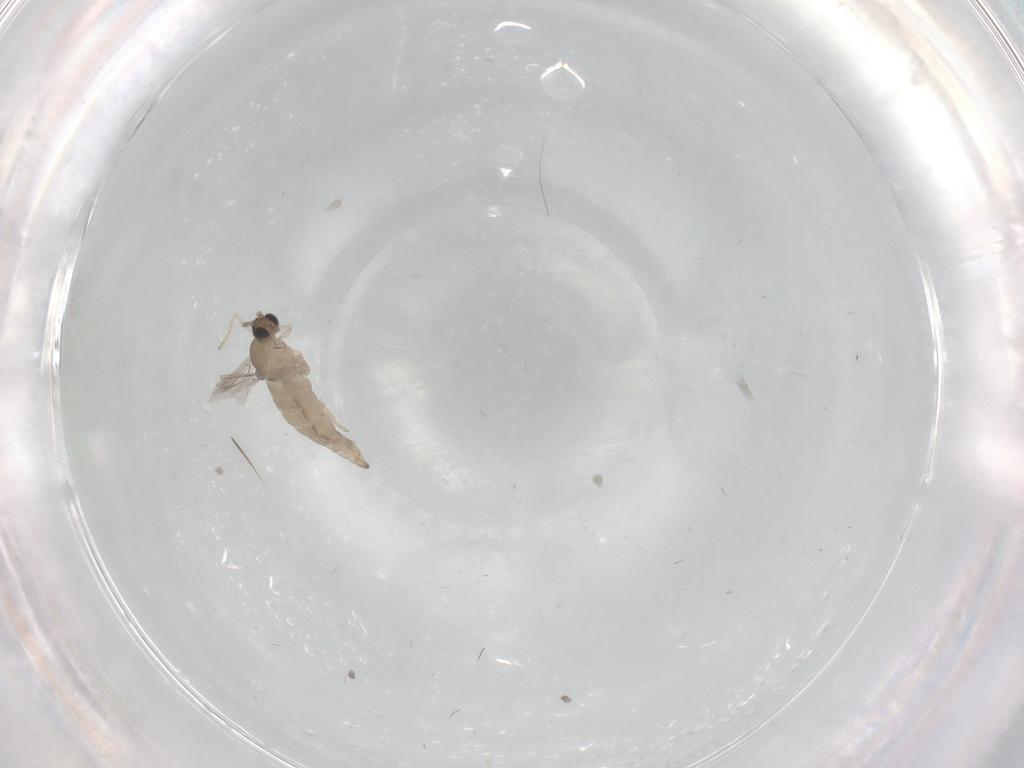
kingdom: Animalia
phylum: Arthropoda
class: Insecta
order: Diptera
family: Cecidomyiidae
